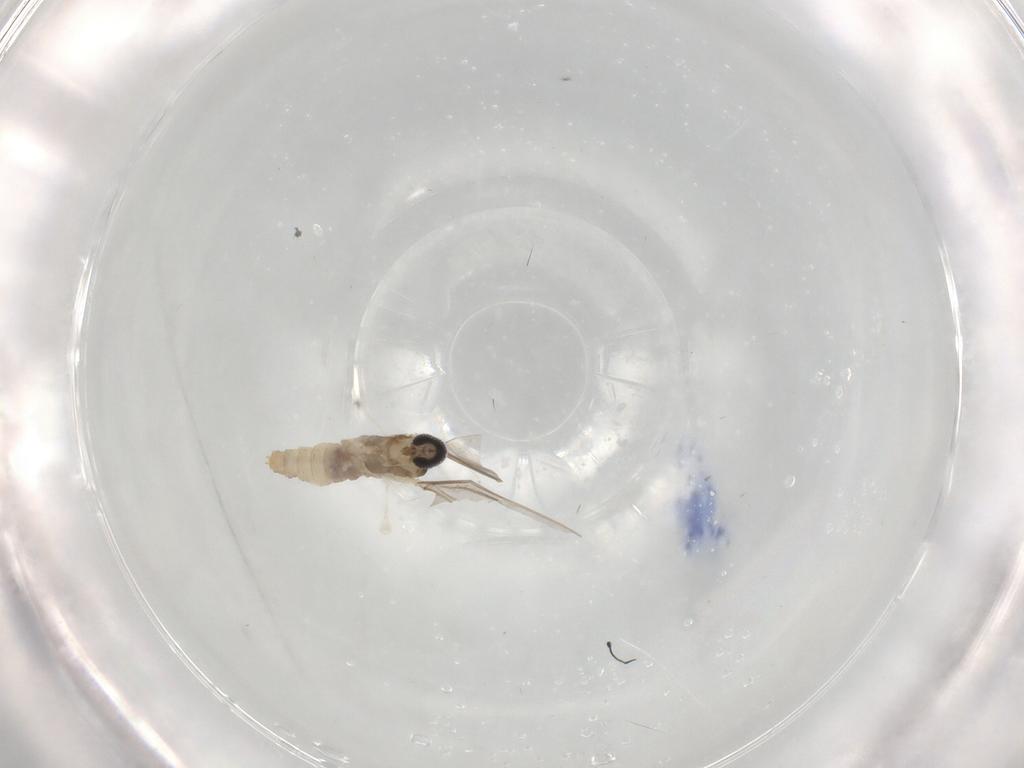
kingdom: Animalia
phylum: Arthropoda
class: Insecta
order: Diptera
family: Cecidomyiidae
